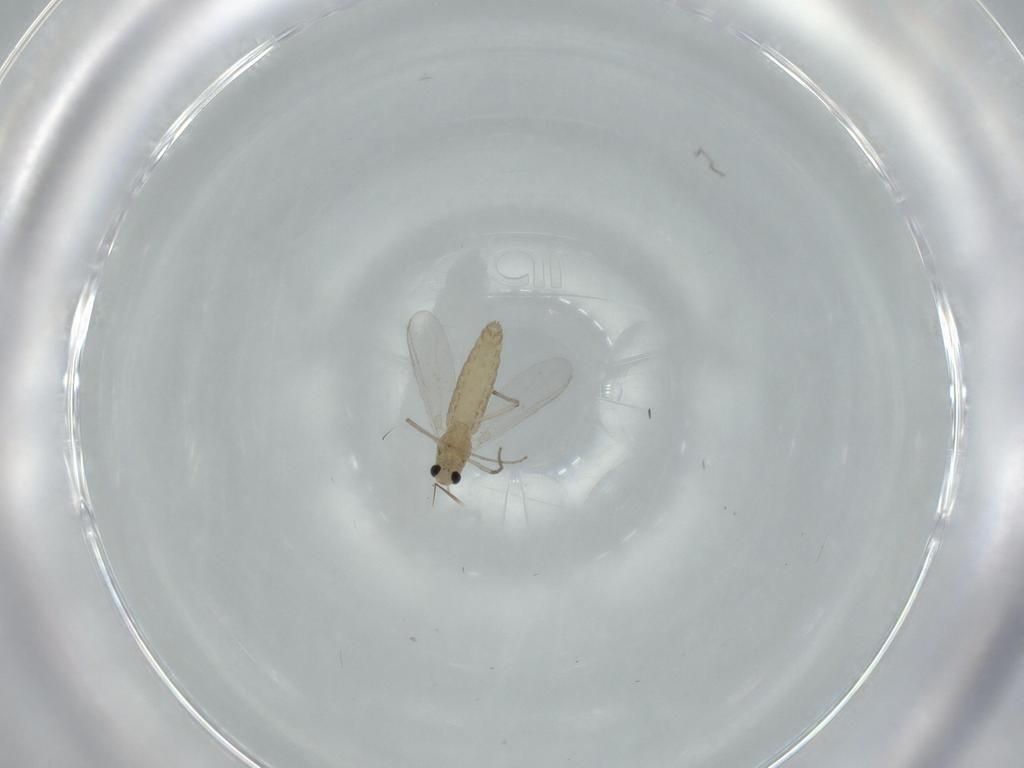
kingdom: Animalia
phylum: Arthropoda
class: Insecta
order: Diptera
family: Chironomidae
